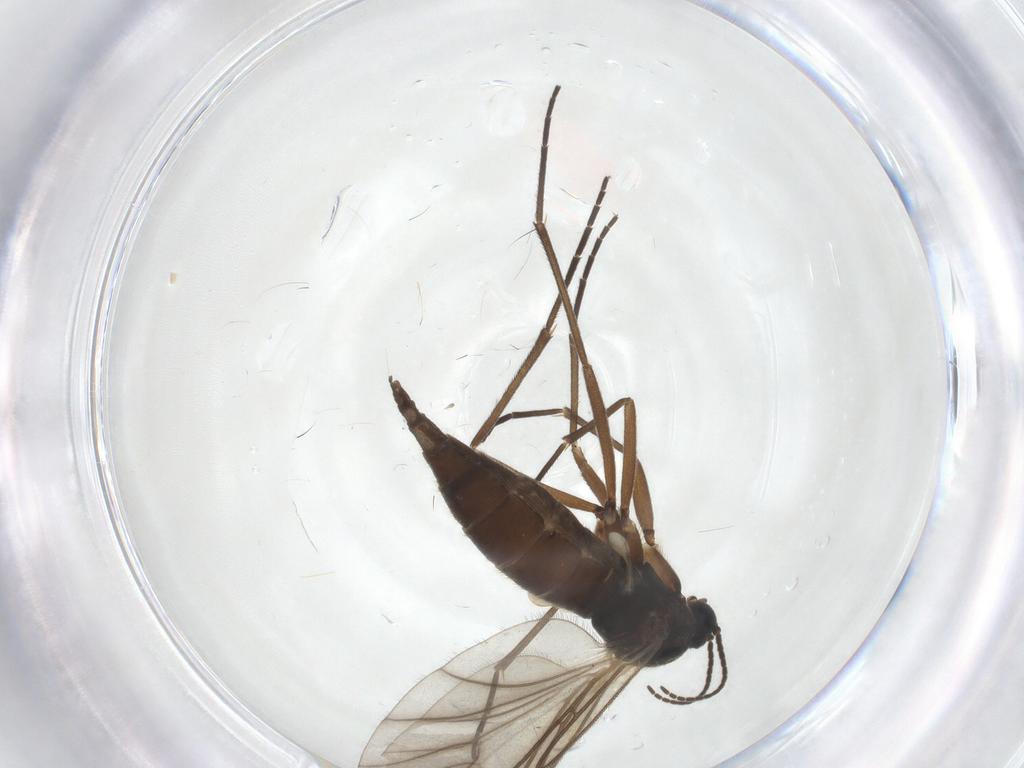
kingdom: Animalia
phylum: Arthropoda
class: Insecta
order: Diptera
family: Sciaridae
